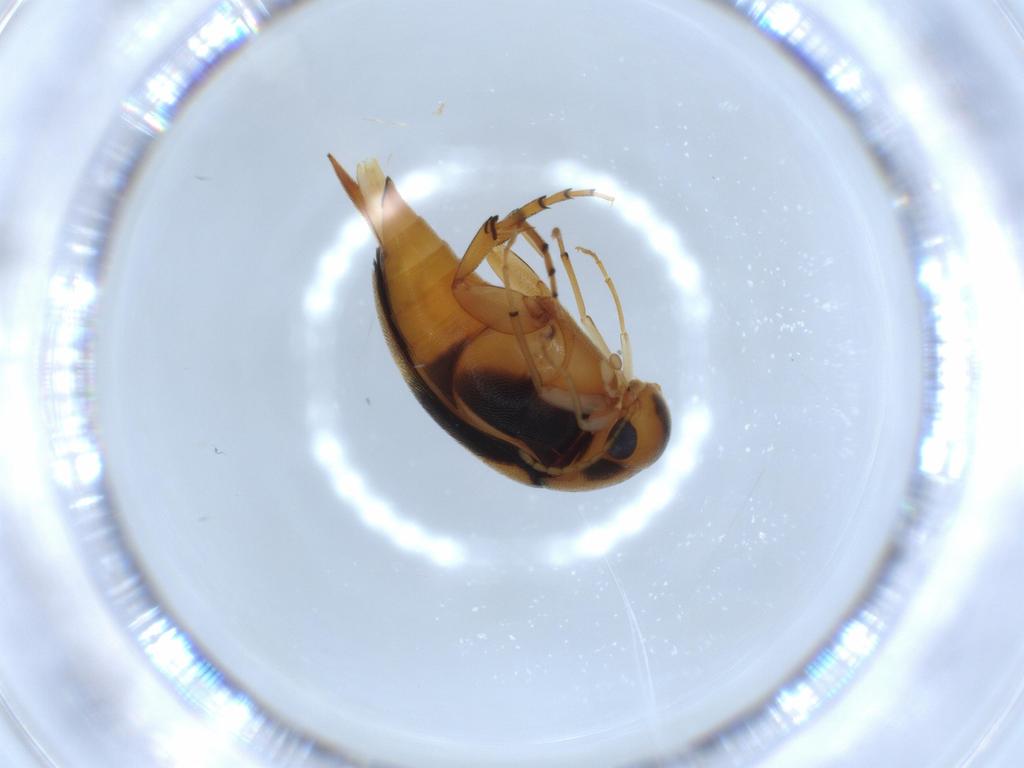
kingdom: Animalia
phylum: Arthropoda
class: Insecta
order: Coleoptera
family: Mordellidae
